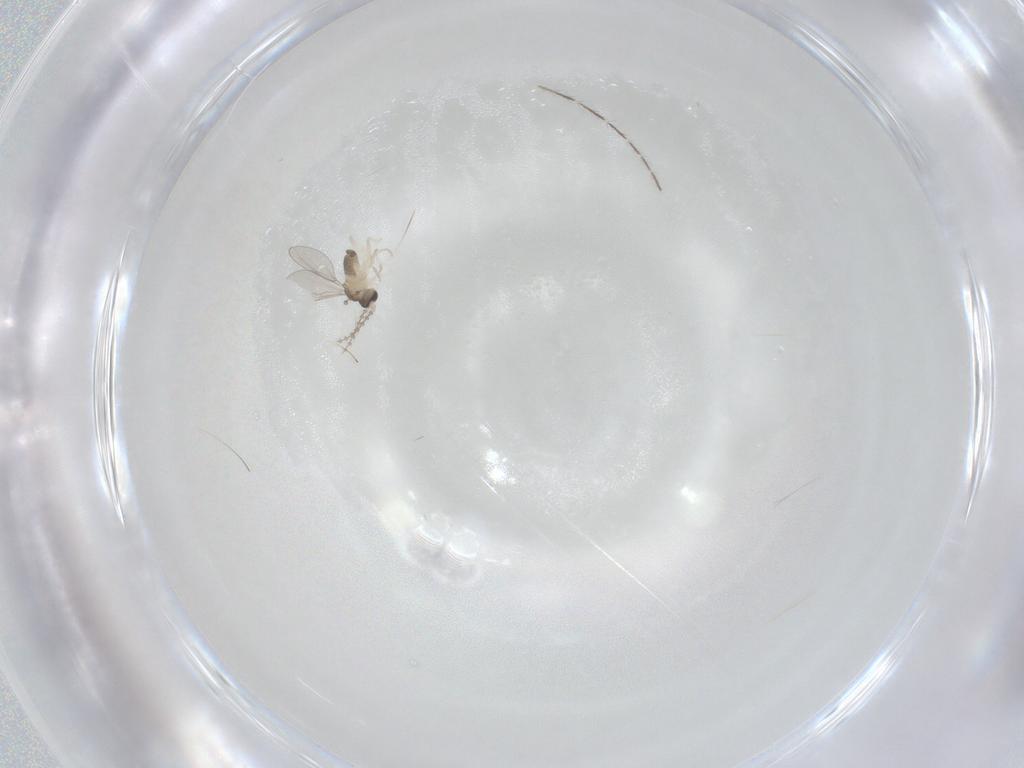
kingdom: Animalia
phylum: Arthropoda
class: Insecta
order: Diptera
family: Cecidomyiidae
